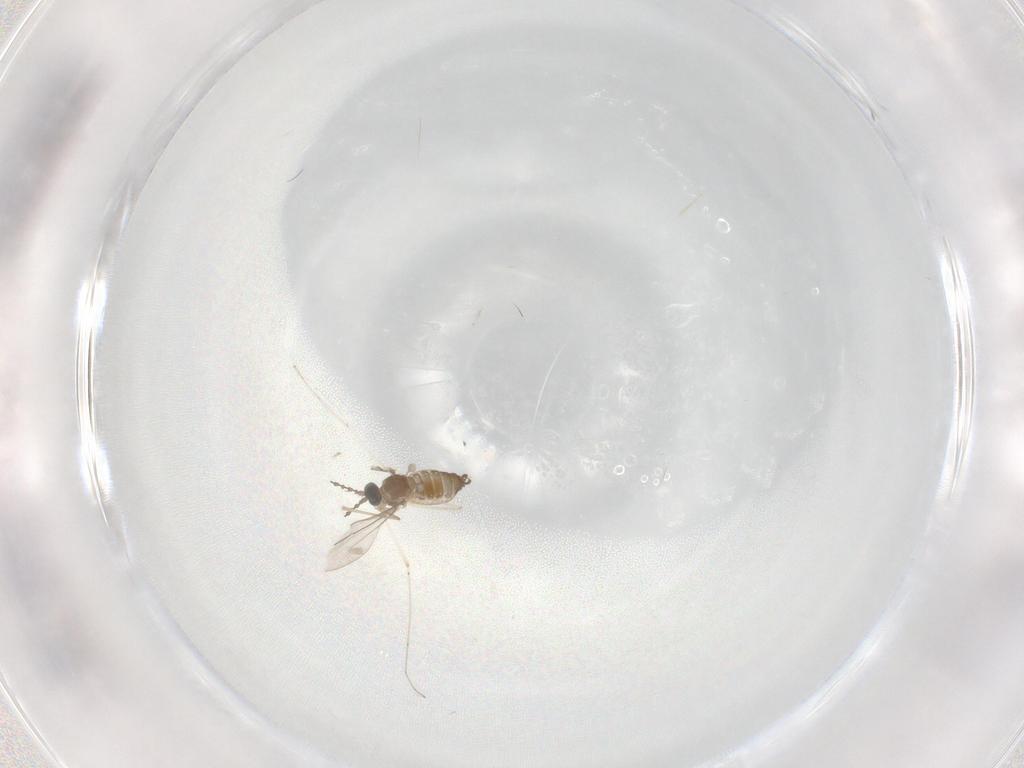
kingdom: Animalia
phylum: Arthropoda
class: Insecta
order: Diptera
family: Cecidomyiidae
